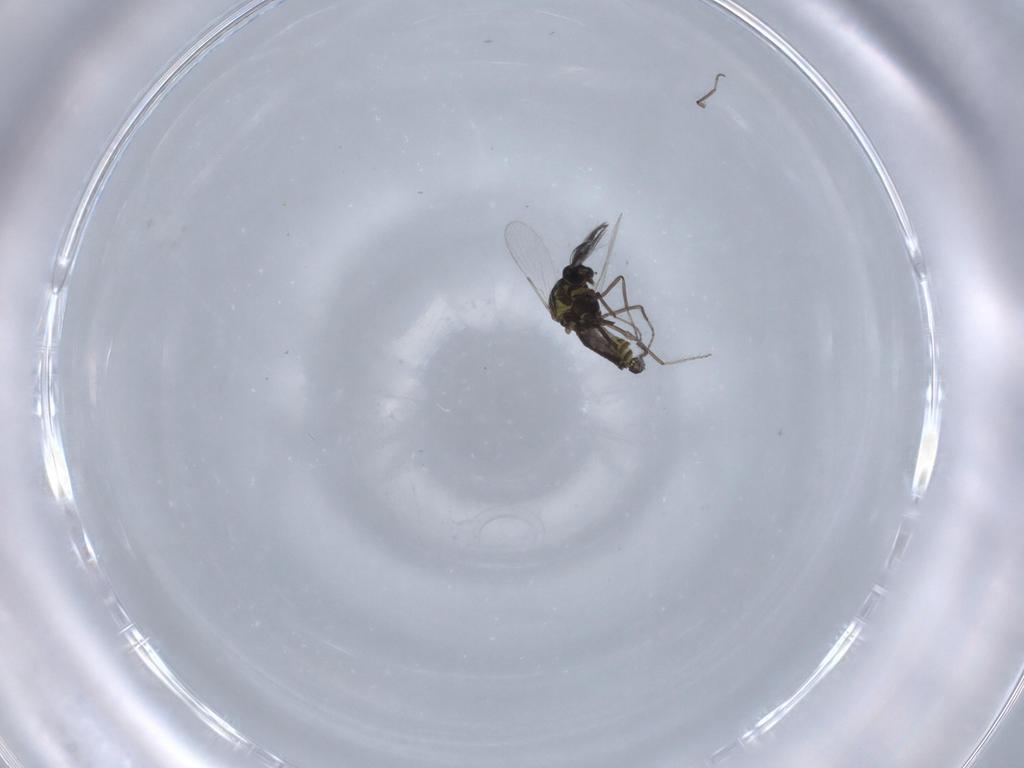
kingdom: Animalia
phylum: Arthropoda
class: Insecta
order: Diptera
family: Ceratopogonidae
